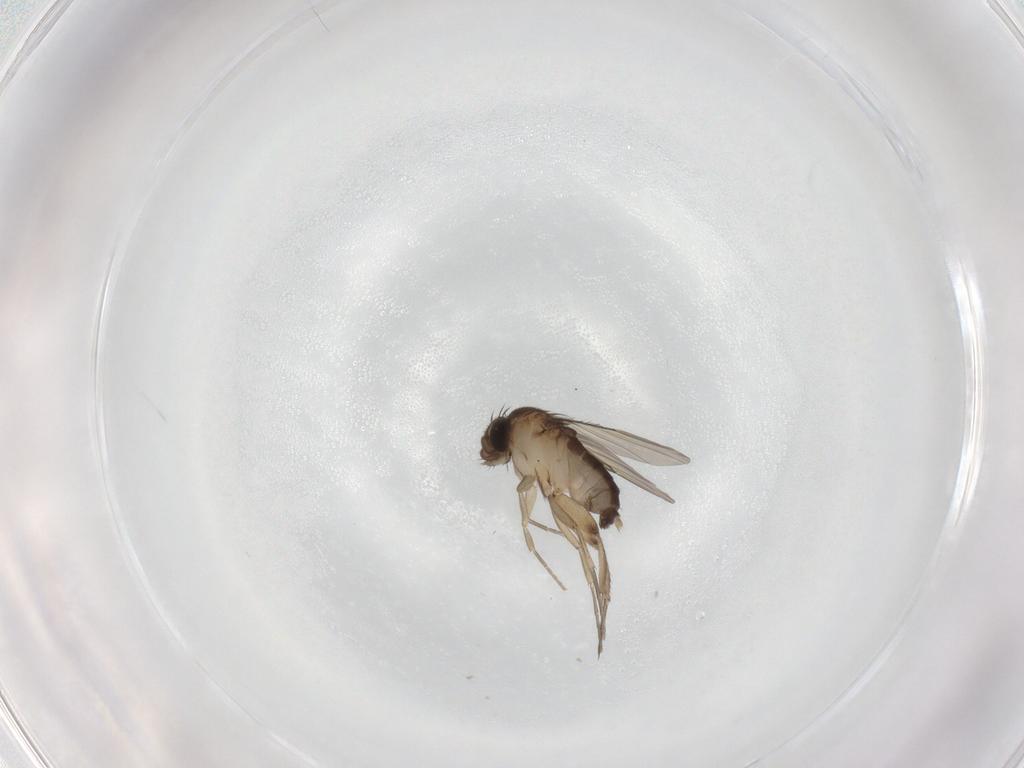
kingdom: Animalia
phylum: Arthropoda
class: Insecta
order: Diptera
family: Phoridae
